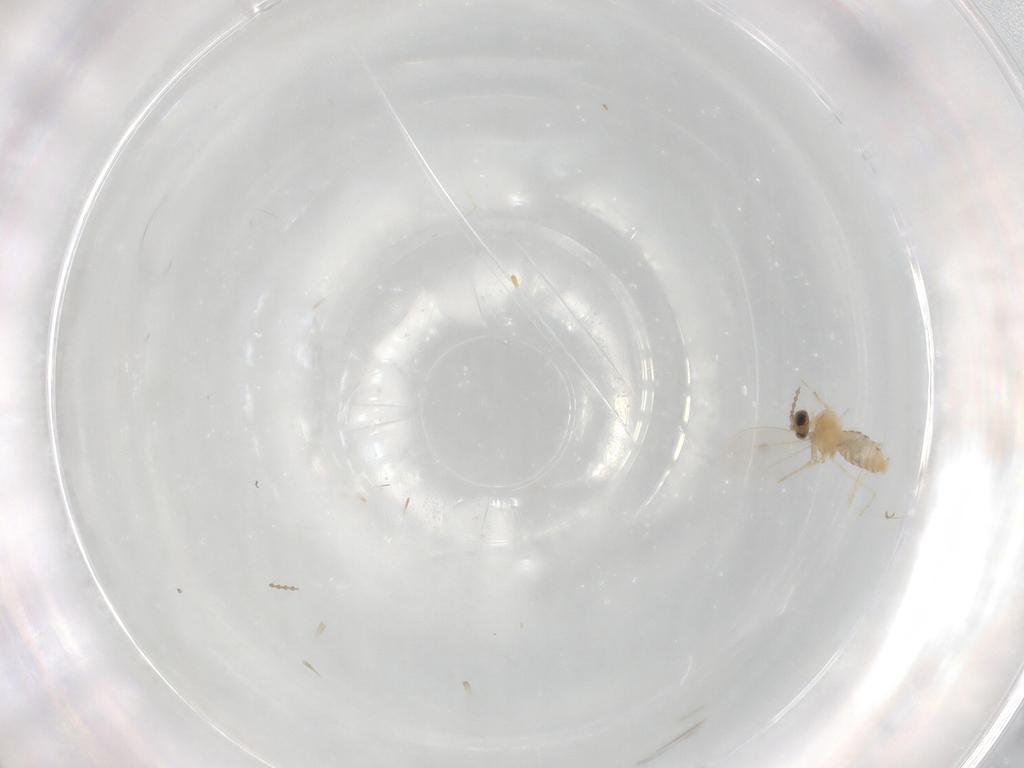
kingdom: Animalia
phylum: Arthropoda
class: Insecta
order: Diptera
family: Cecidomyiidae
